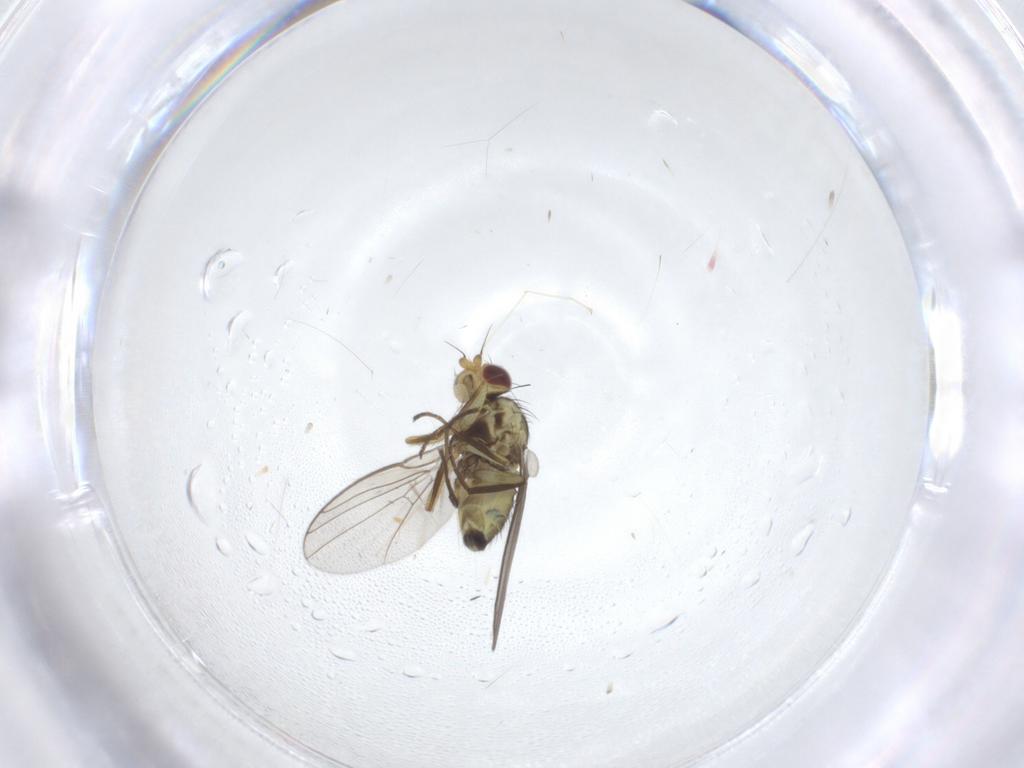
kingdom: Animalia
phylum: Arthropoda
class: Insecta
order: Diptera
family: Agromyzidae
